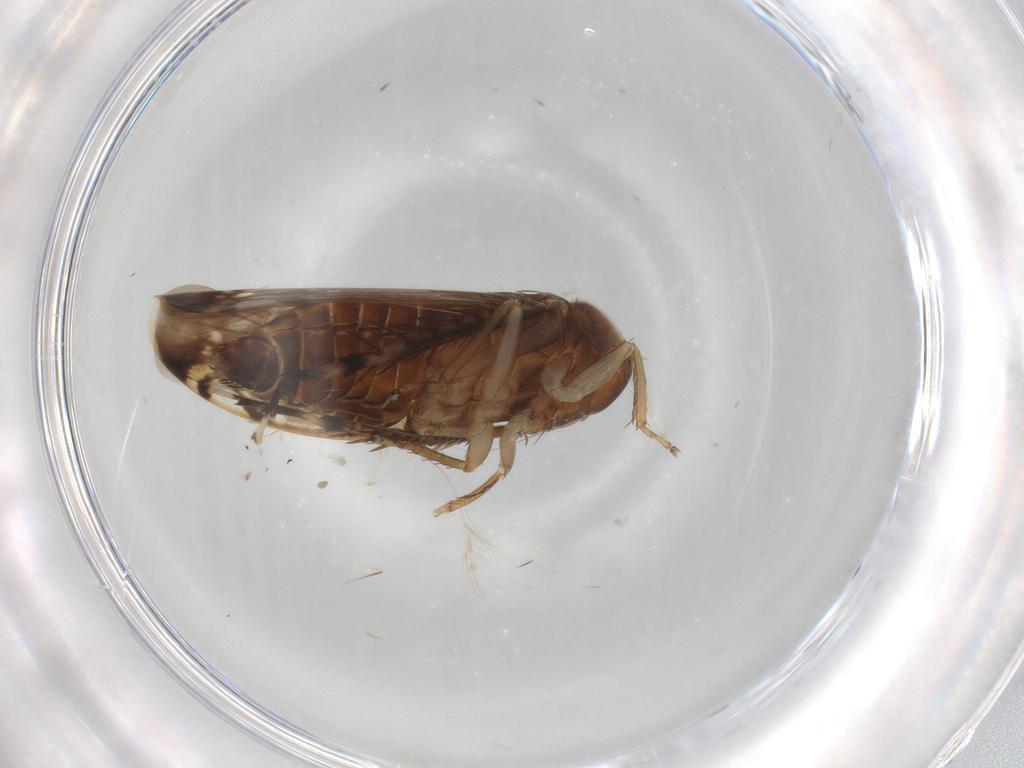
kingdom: Animalia
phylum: Arthropoda
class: Insecta
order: Hemiptera
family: Cicadellidae
